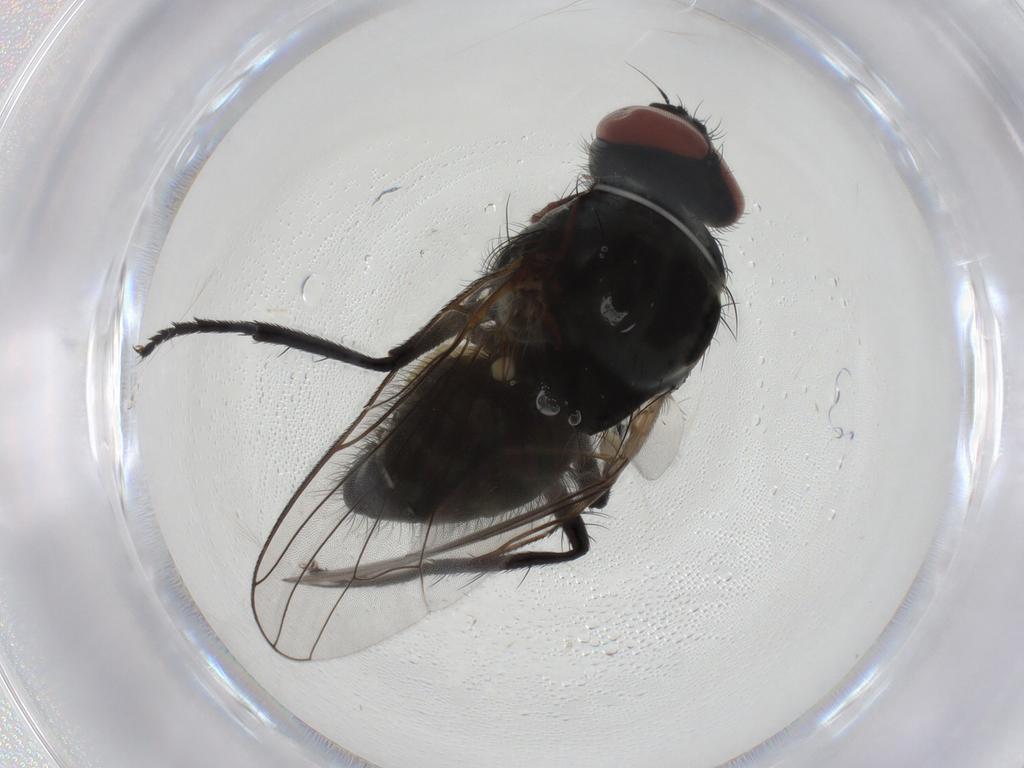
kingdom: Animalia
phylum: Arthropoda
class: Insecta
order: Diptera
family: Anthomyiidae
